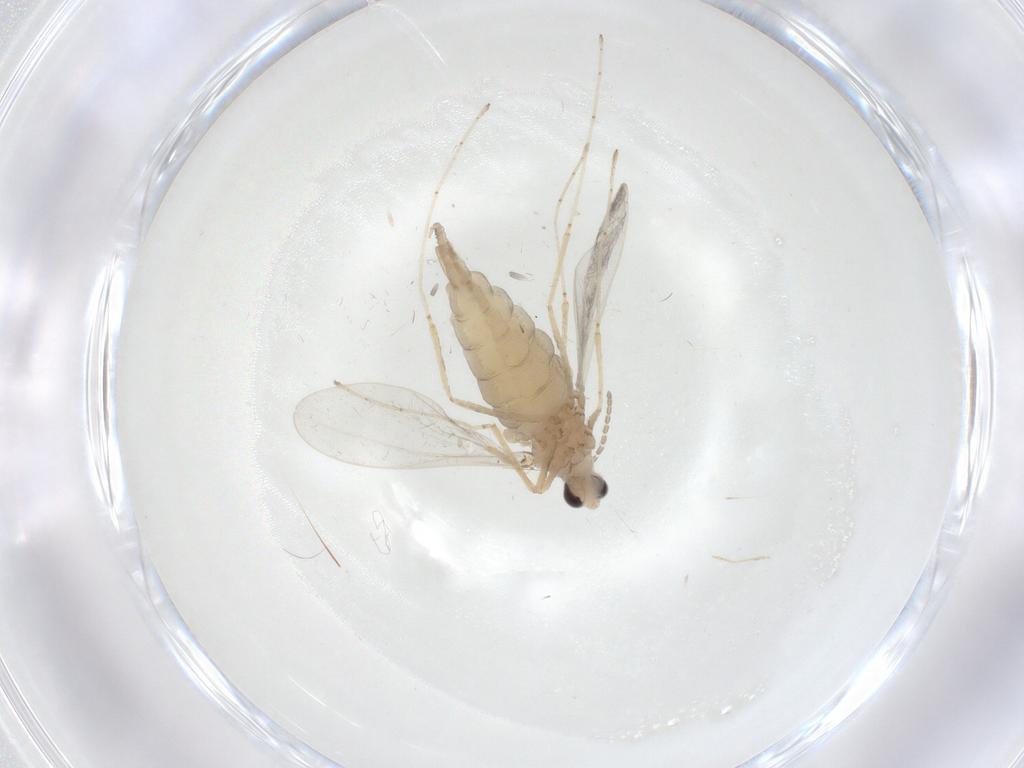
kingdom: Animalia
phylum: Arthropoda
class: Insecta
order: Diptera
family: Cecidomyiidae
